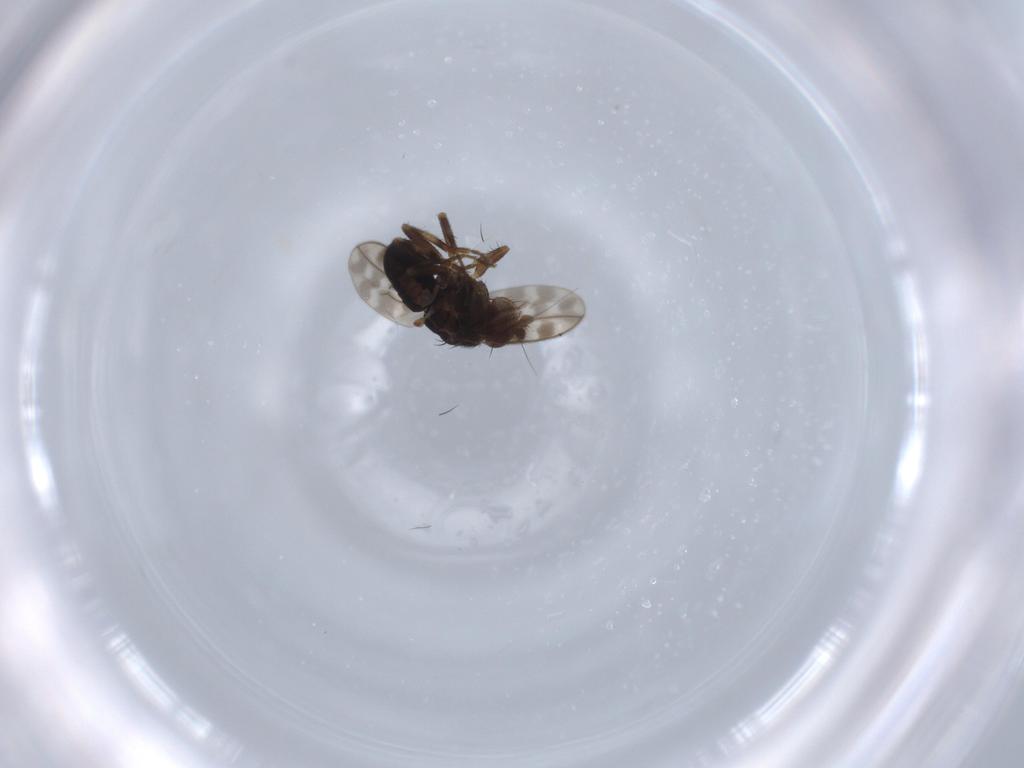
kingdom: Animalia
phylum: Arthropoda
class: Insecta
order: Diptera
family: Sphaeroceridae
